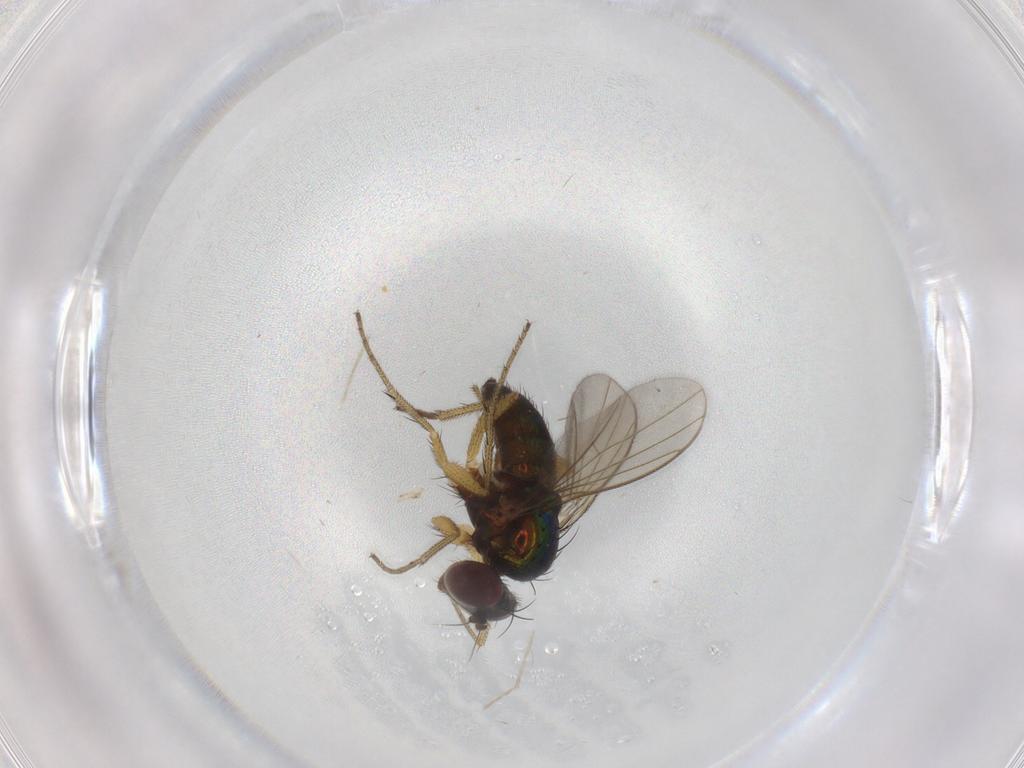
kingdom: Animalia
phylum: Arthropoda
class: Insecta
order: Diptera
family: Dolichopodidae
